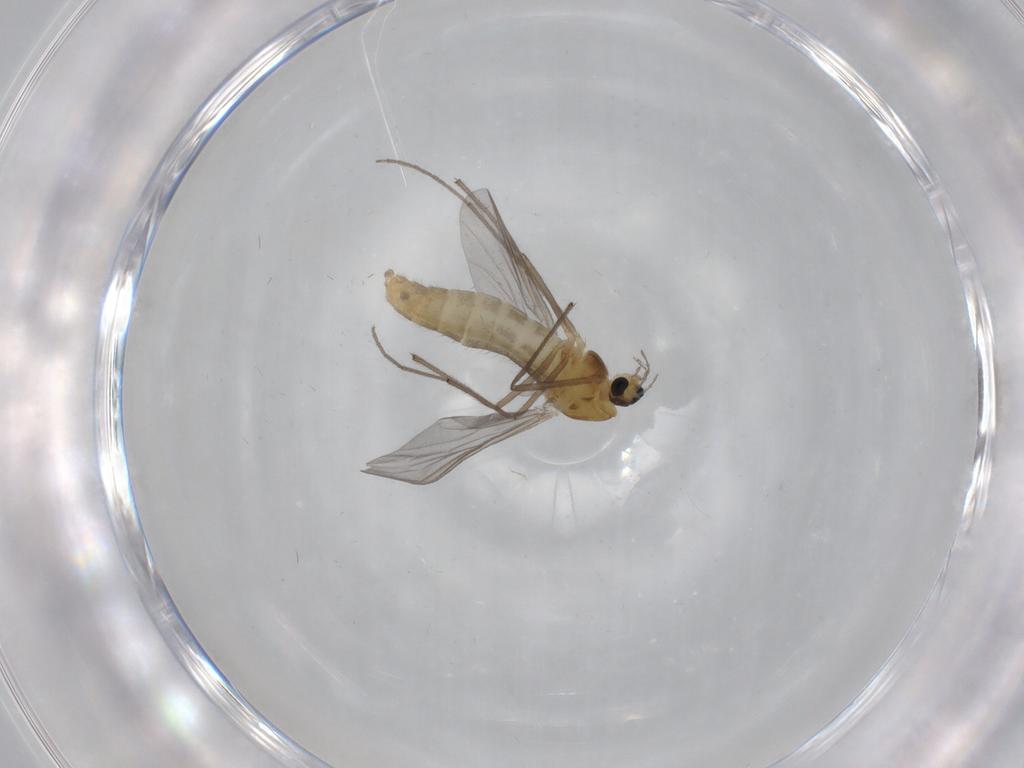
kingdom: Animalia
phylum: Arthropoda
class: Insecta
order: Diptera
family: Chironomidae
